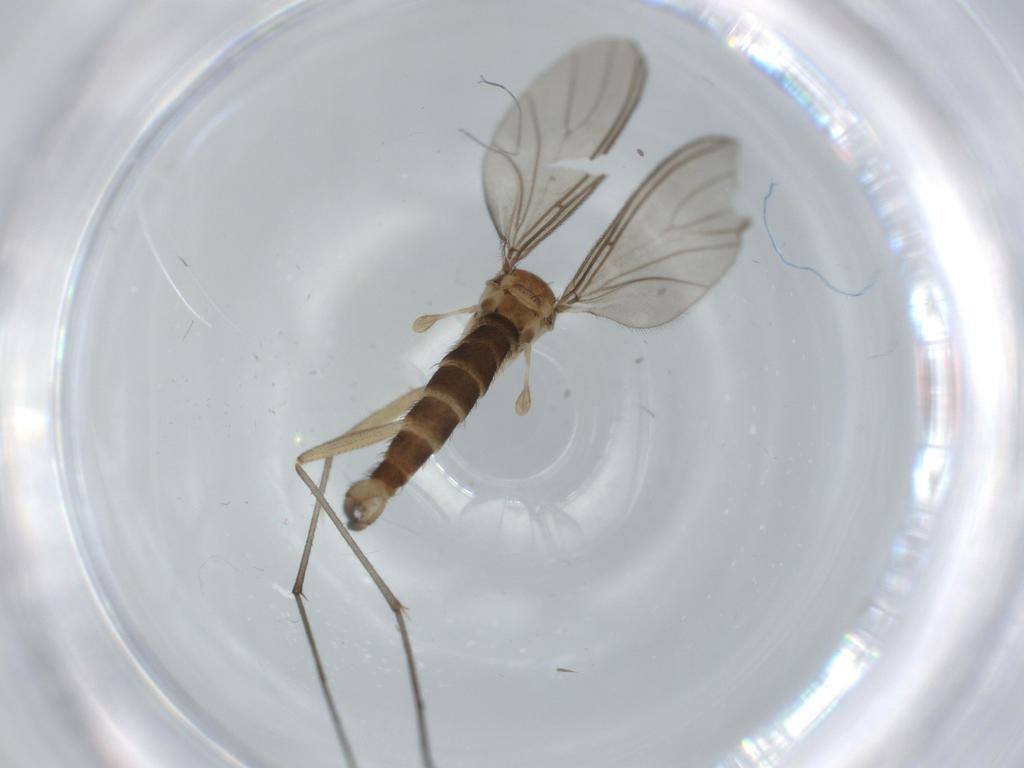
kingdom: Animalia
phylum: Arthropoda
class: Insecta
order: Diptera
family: Sciaridae
